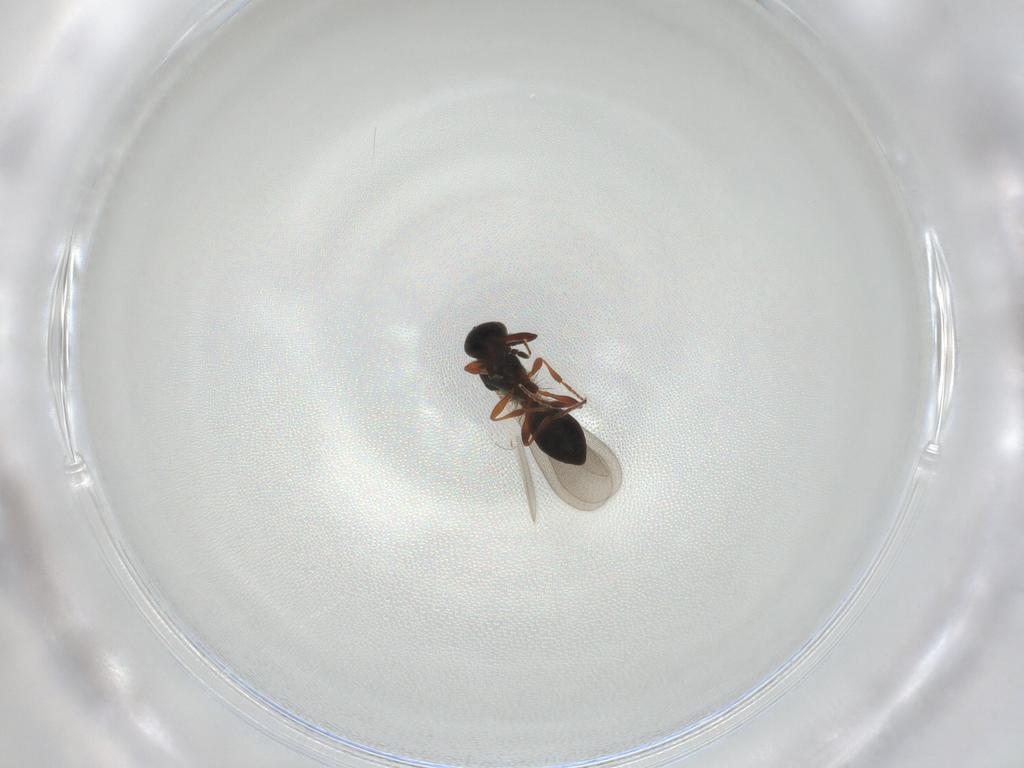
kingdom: Animalia
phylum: Arthropoda
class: Insecta
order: Hymenoptera
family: Platygastridae
